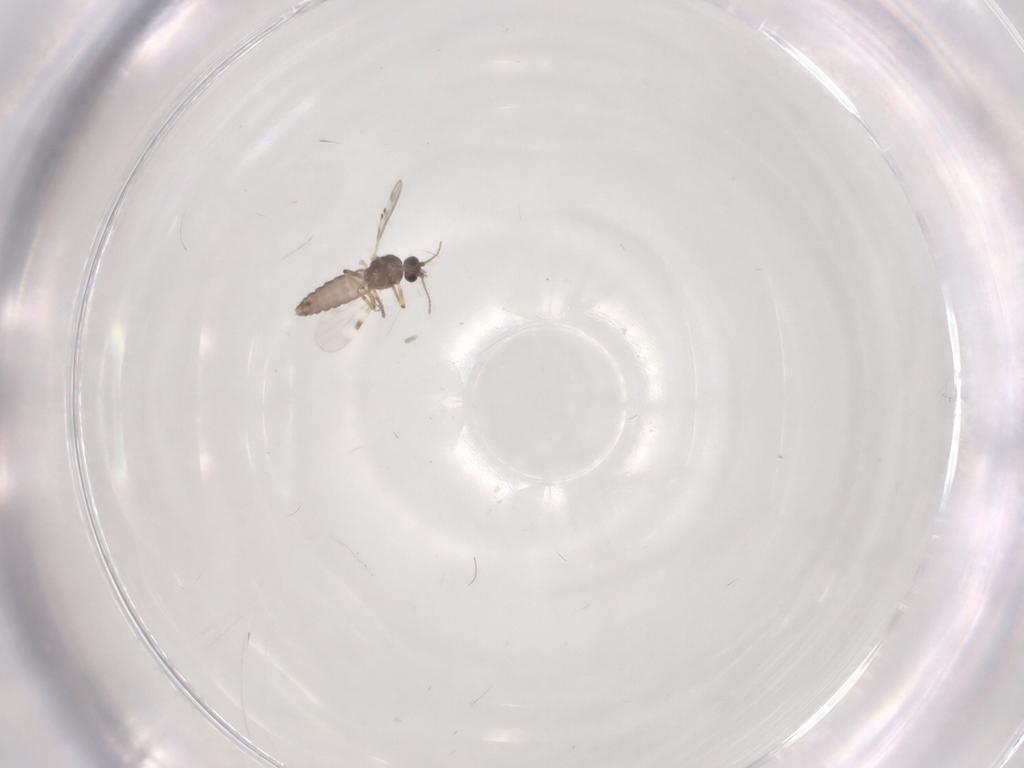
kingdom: Animalia
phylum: Arthropoda
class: Insecta
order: Diptera
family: Ceratopogonidae
